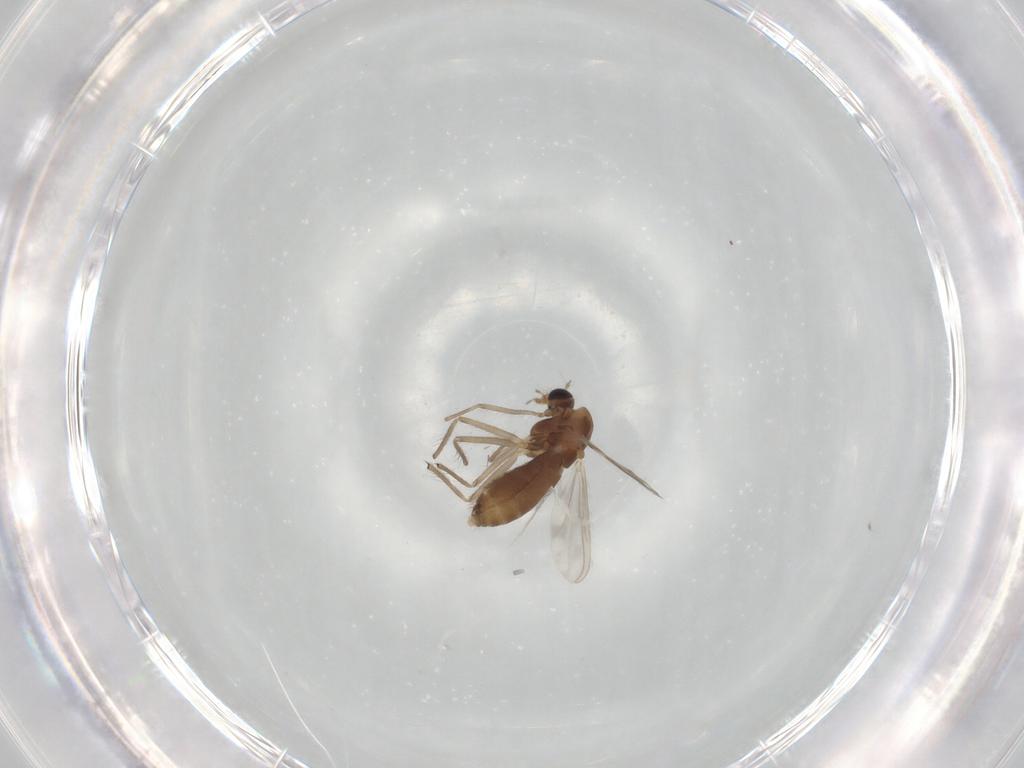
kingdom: Animalia
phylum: Arthropoda
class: Insecta
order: Diptera
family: Chironomidae
